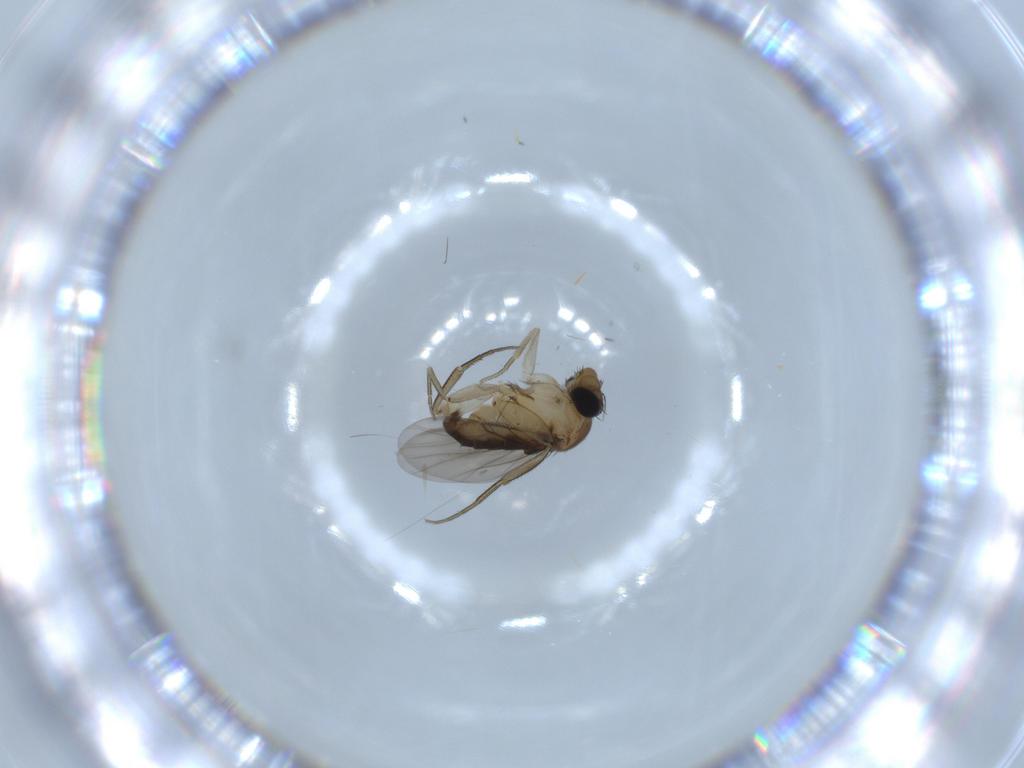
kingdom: Animalia
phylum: Arthropoda
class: Insecta
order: Diptera
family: Phoridae
